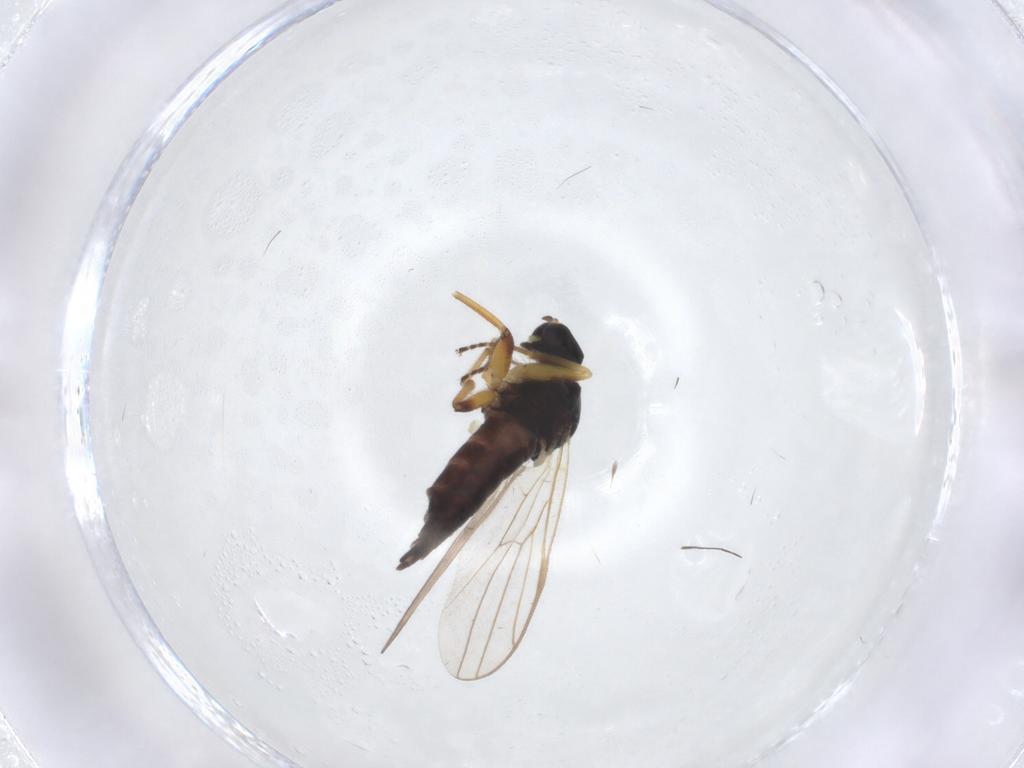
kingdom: Animalia
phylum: Arthropoda
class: Insecta
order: Diptera
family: Hybotidae
